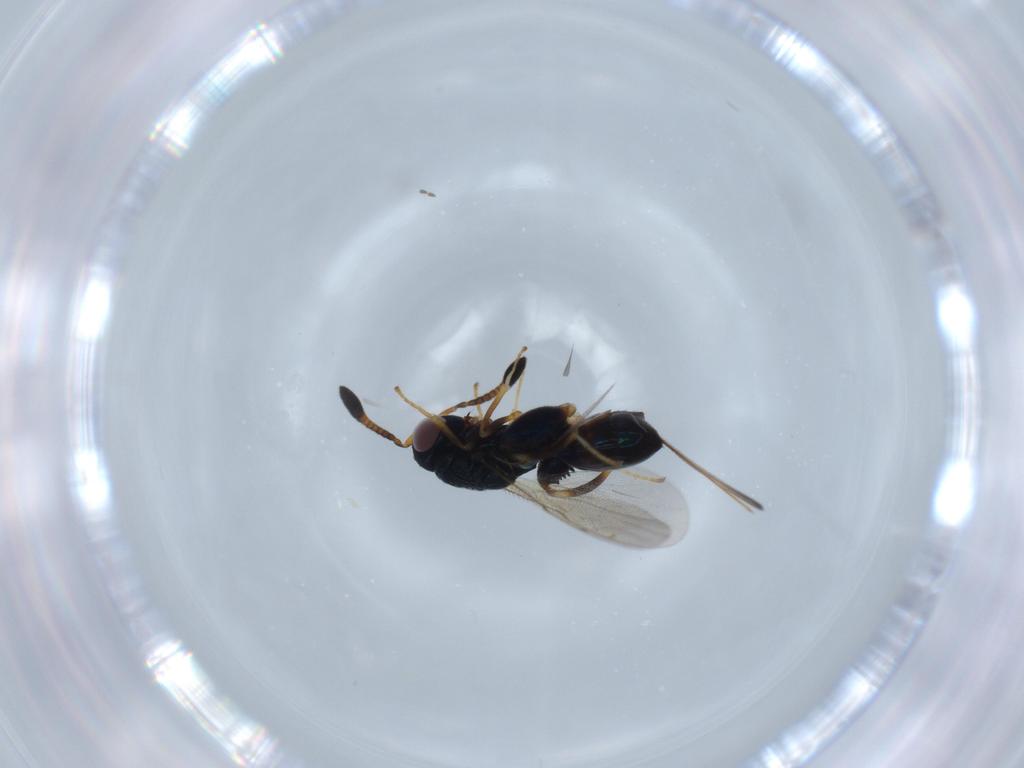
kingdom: Animalia
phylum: Arthropoda
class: Insecta
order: Hymenoptera
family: Torymidae
